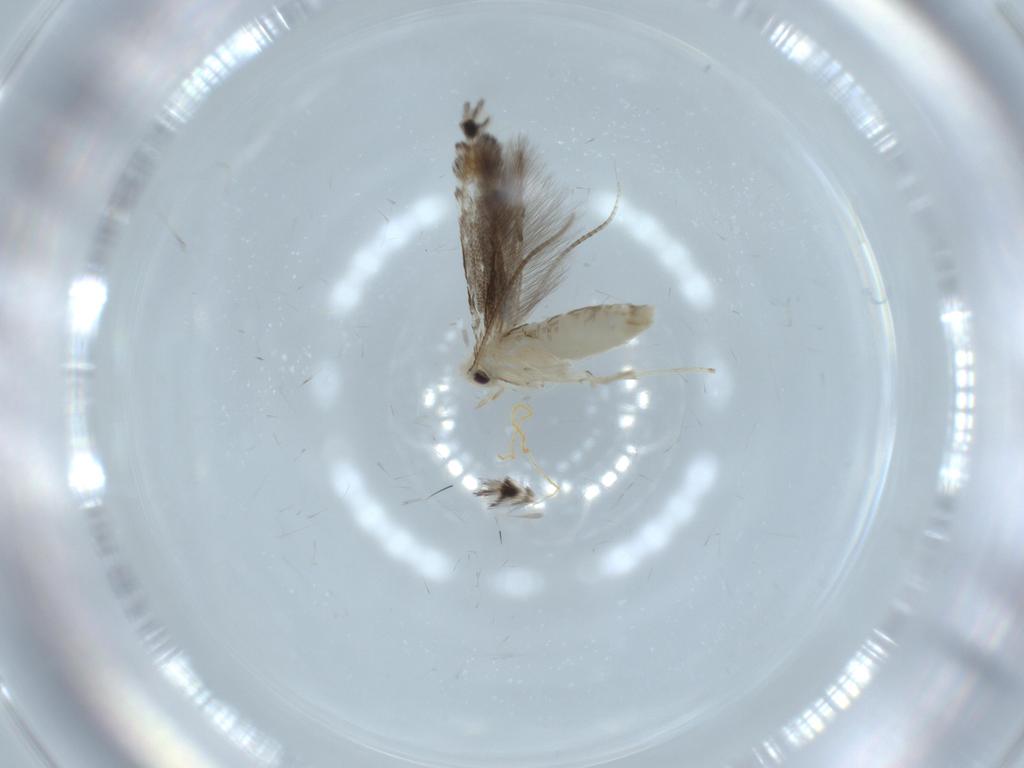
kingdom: Animalia
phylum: Arthropoda
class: Insecta
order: Lepidoptera
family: Gracillariidae
